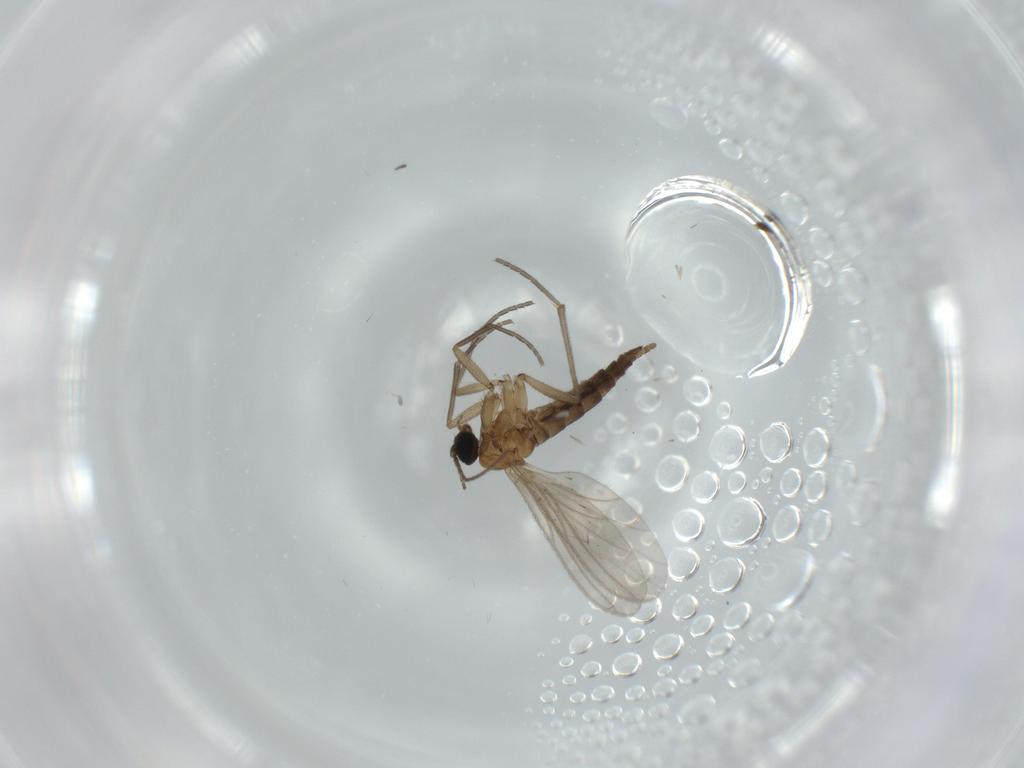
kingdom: Animalia
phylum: Arthropoda
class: Insecta
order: Diptera
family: Sciaridae
